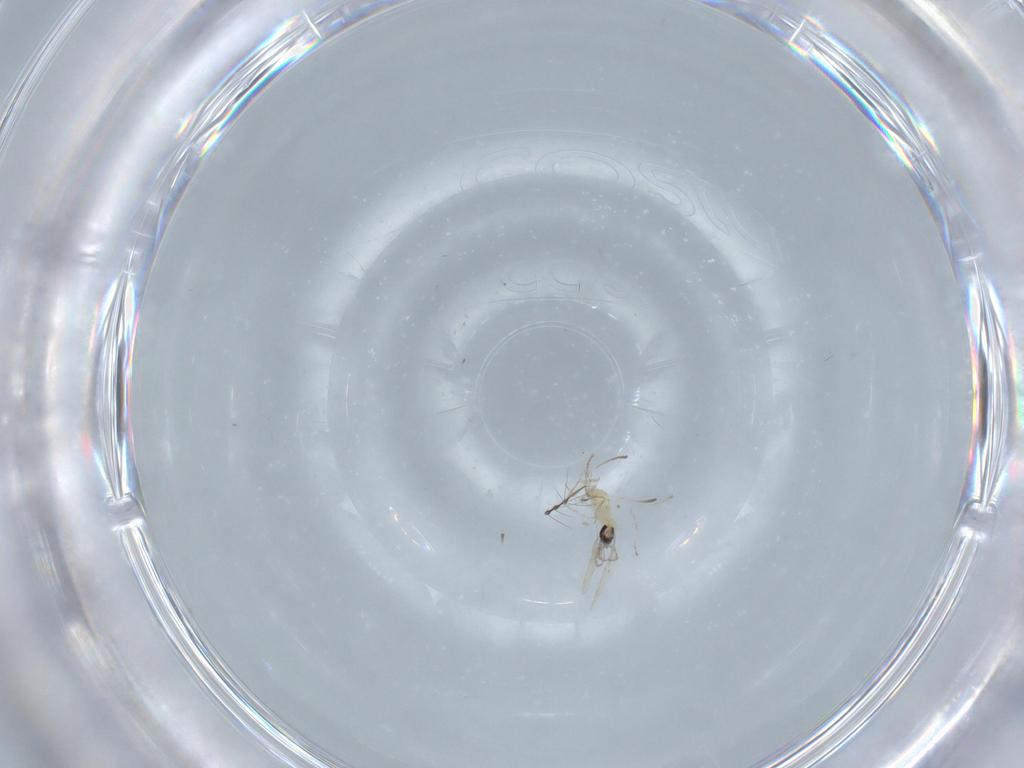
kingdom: Animalia
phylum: Arthropoda
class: Insecta
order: Diptera
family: Cecidomyiidae
